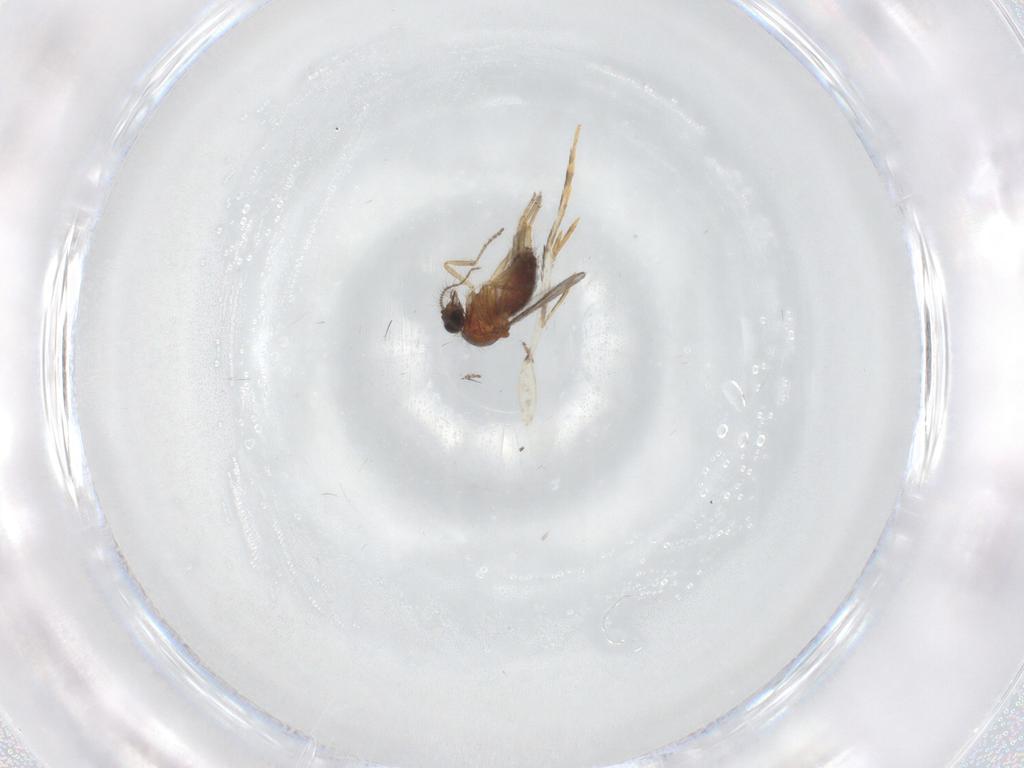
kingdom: Animalia
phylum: Arthropoda
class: Insecta
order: Diptera
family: Ceratopogonidae
